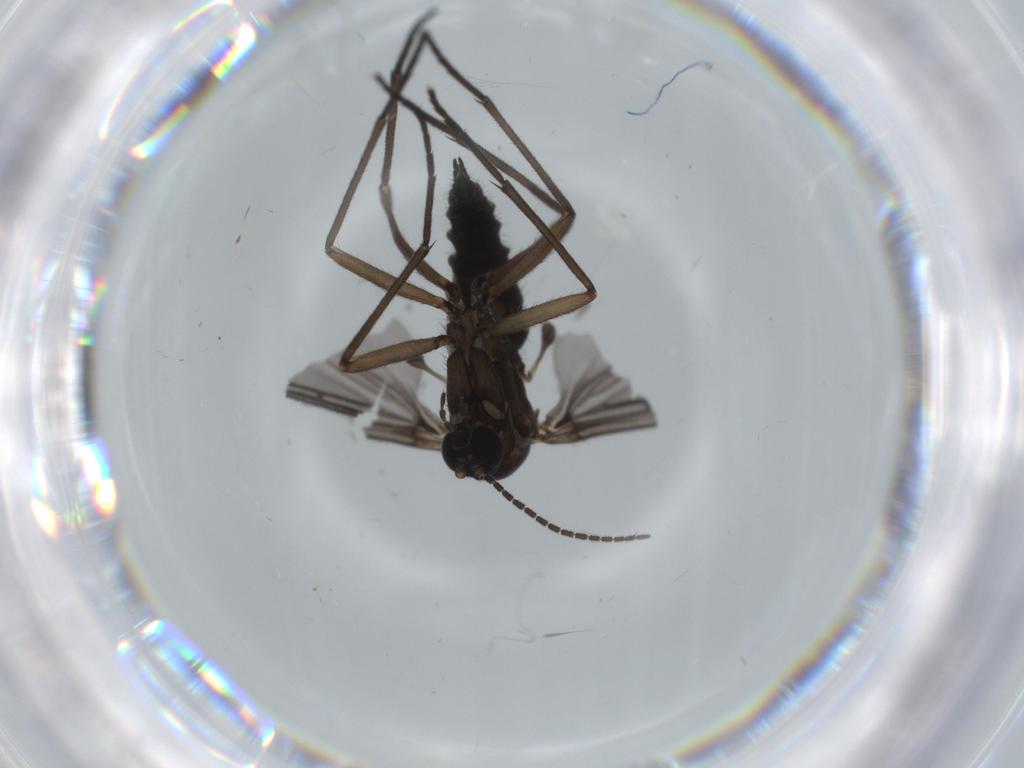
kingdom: Animalia
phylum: Arthropoda
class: Insecta
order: Diptera
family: Sciaridae
